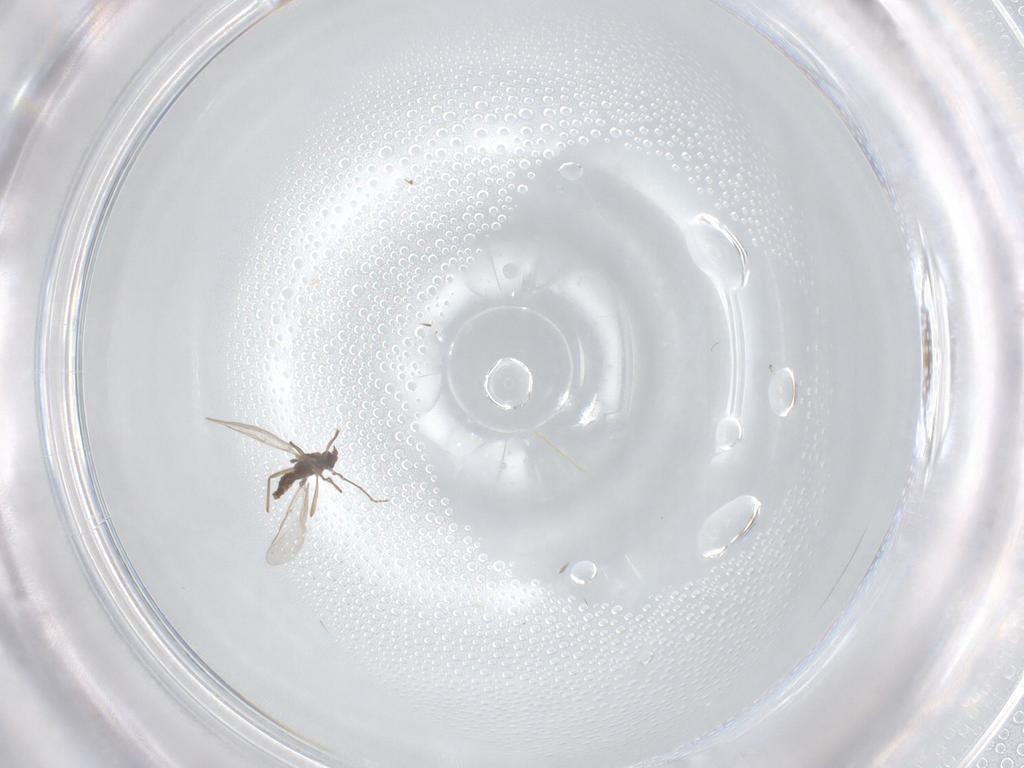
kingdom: Animalia
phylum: Arthropoda
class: Insecta
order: Diptera
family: Cecidomyiidae
